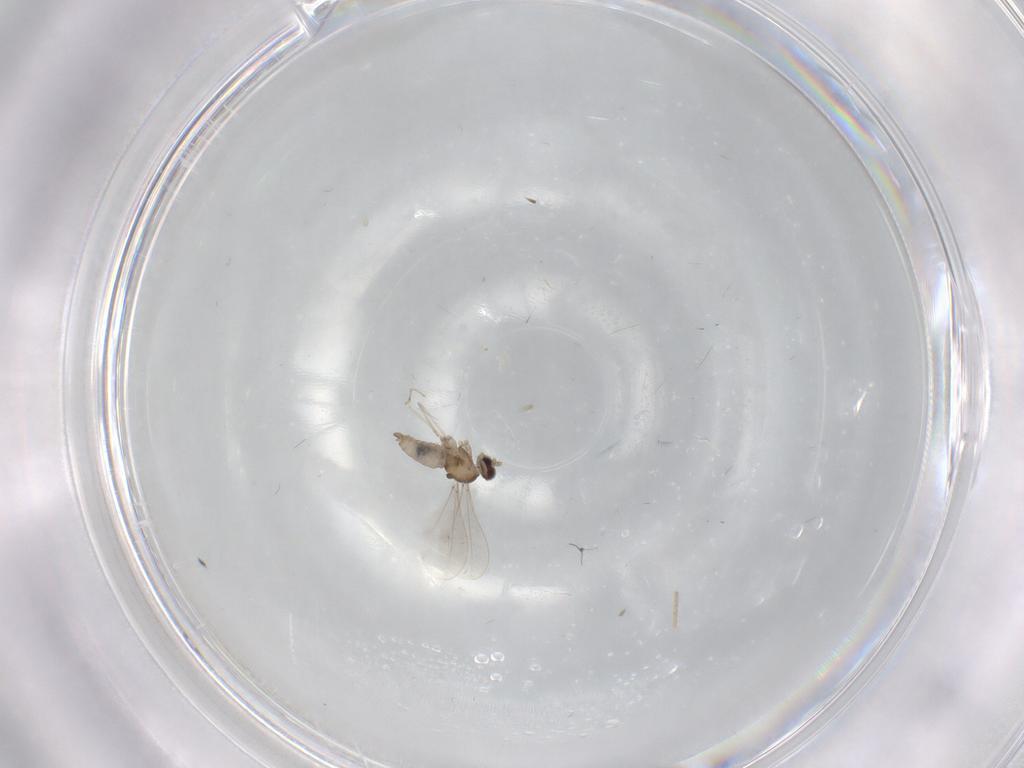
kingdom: Animalia
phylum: Arthropoda
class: Insecta
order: Diptera
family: Cecidomyiidae
